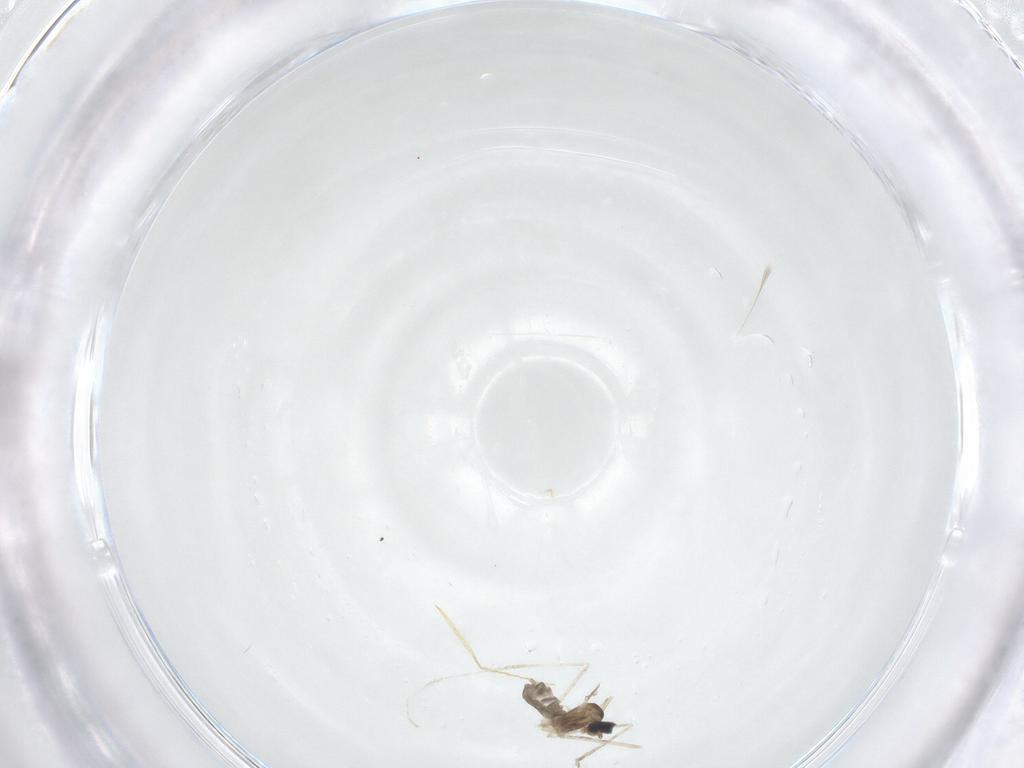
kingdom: Animalia
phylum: Arthropoda
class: Insecta
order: Diptera
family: Cecidomyiidae
